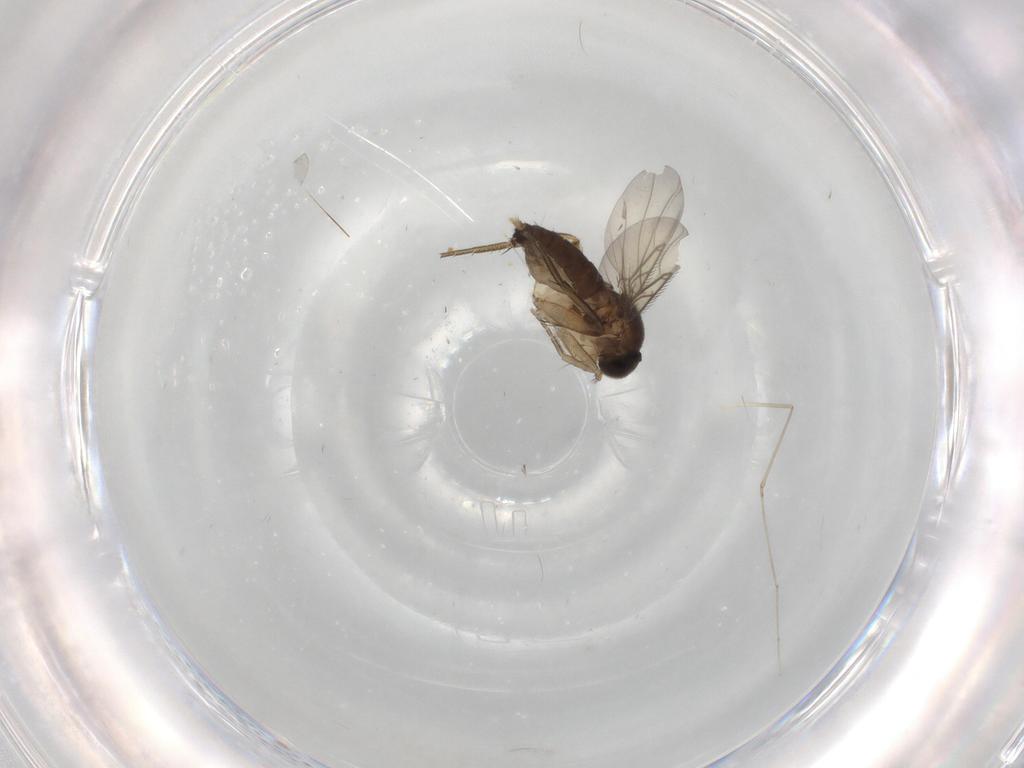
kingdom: Animalia
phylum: Arthropoda
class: Insecta
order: Diptera
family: Phoridae
